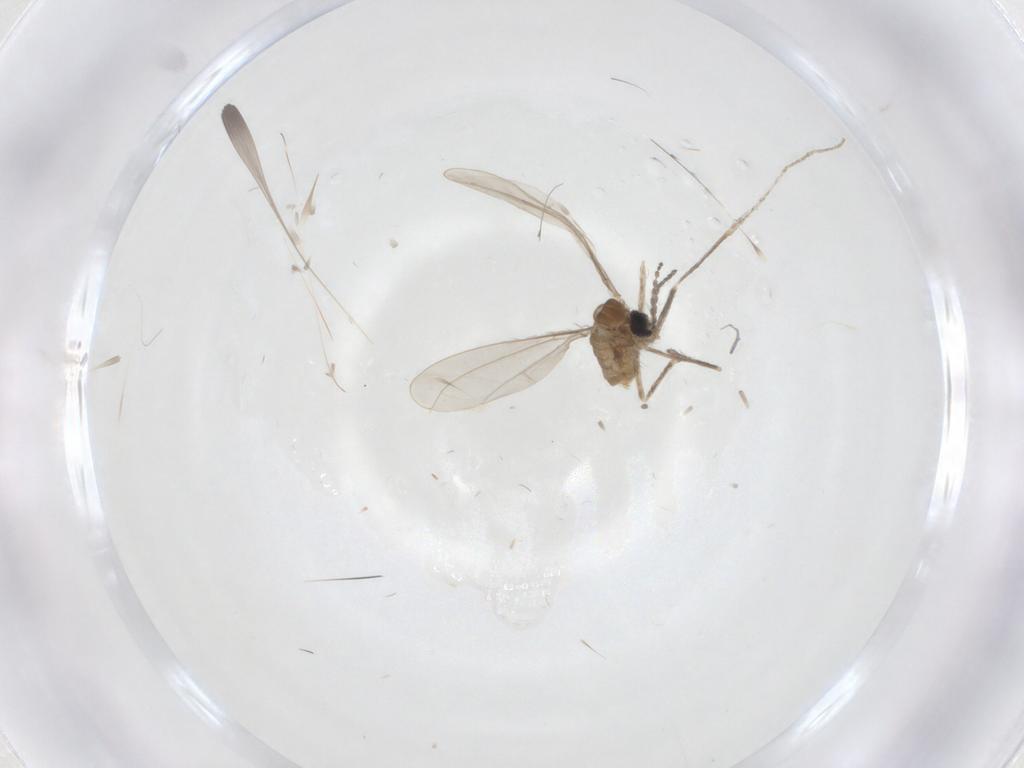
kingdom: Animalia
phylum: Arthropoda
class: Insecta
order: Diptera
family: Cecidomyiidae
